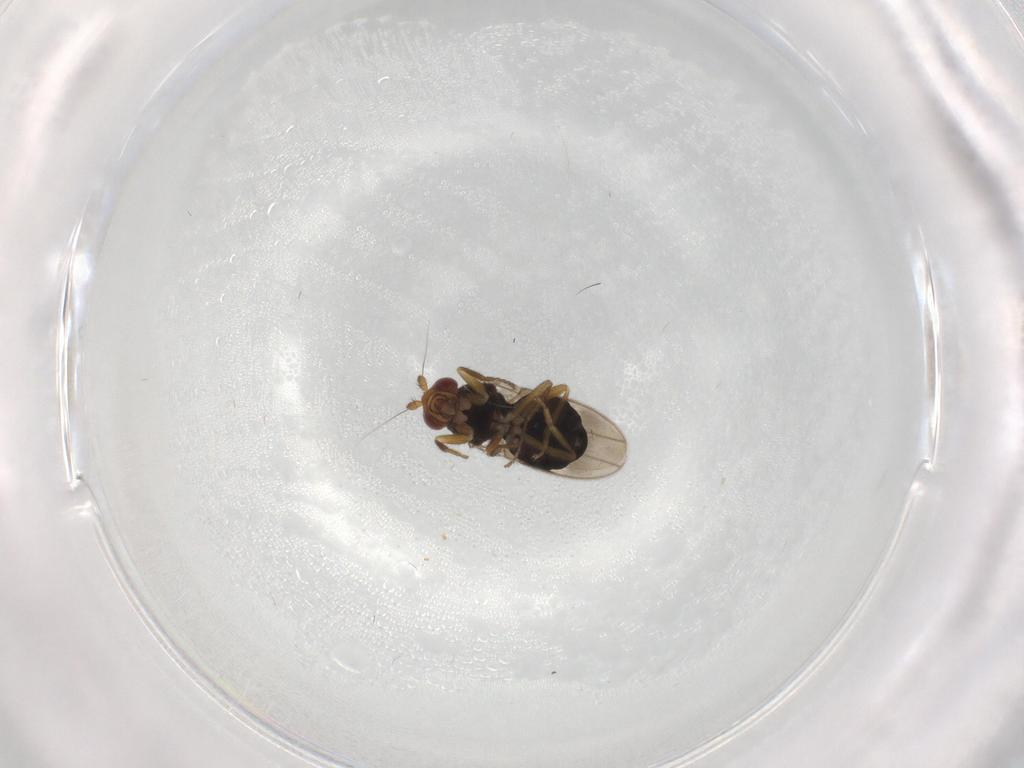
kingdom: Animalia
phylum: Arthropoda
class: Insecta
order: Diptera
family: Sphaeroceridae
